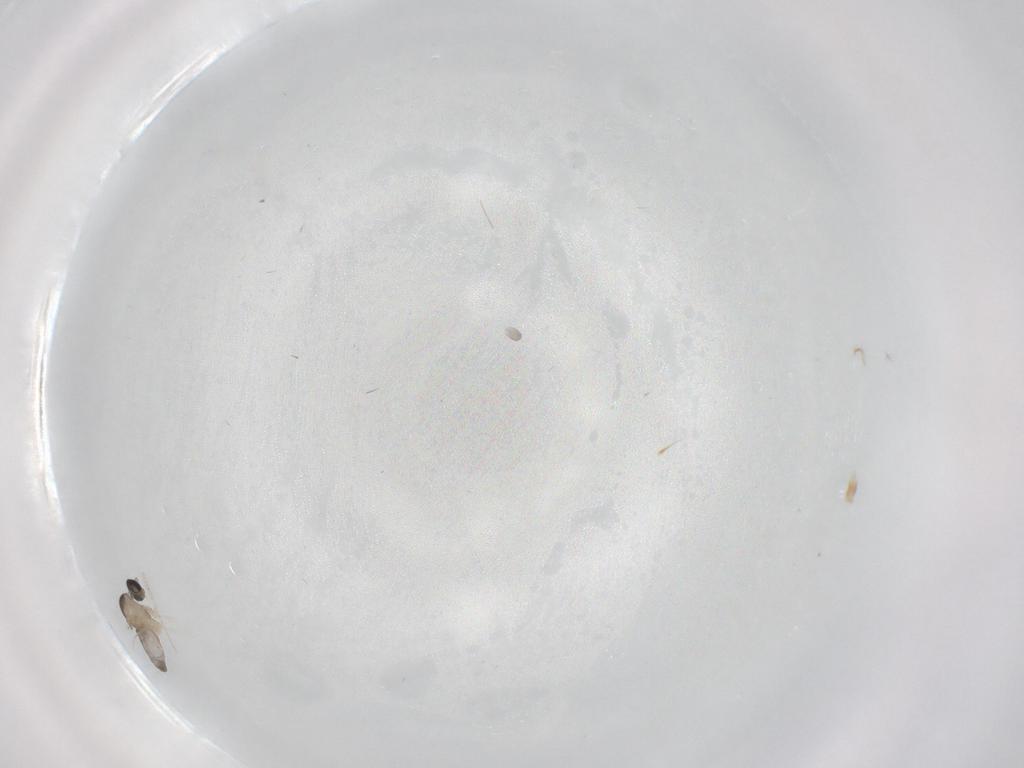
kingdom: Animalia
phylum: Arthropoda
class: Insecta
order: Diptera
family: Cecidomyiidae
